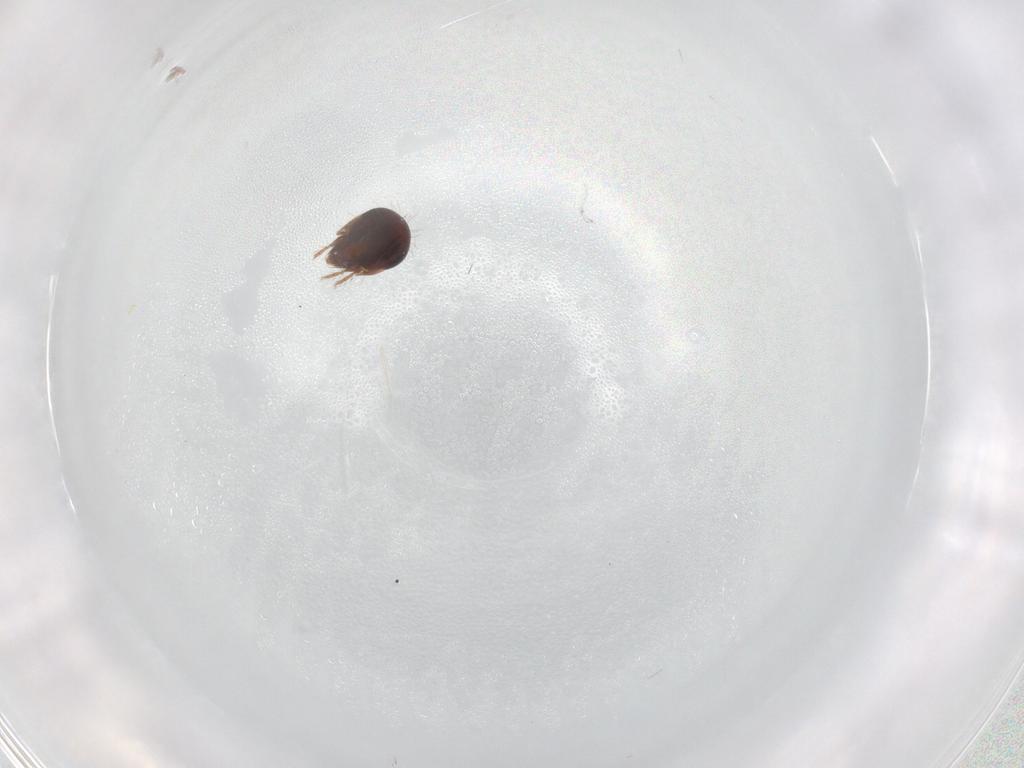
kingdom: Animalia
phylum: Arthropoda
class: Arachnida
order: Sarcoptiformes
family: Humerobatidae
